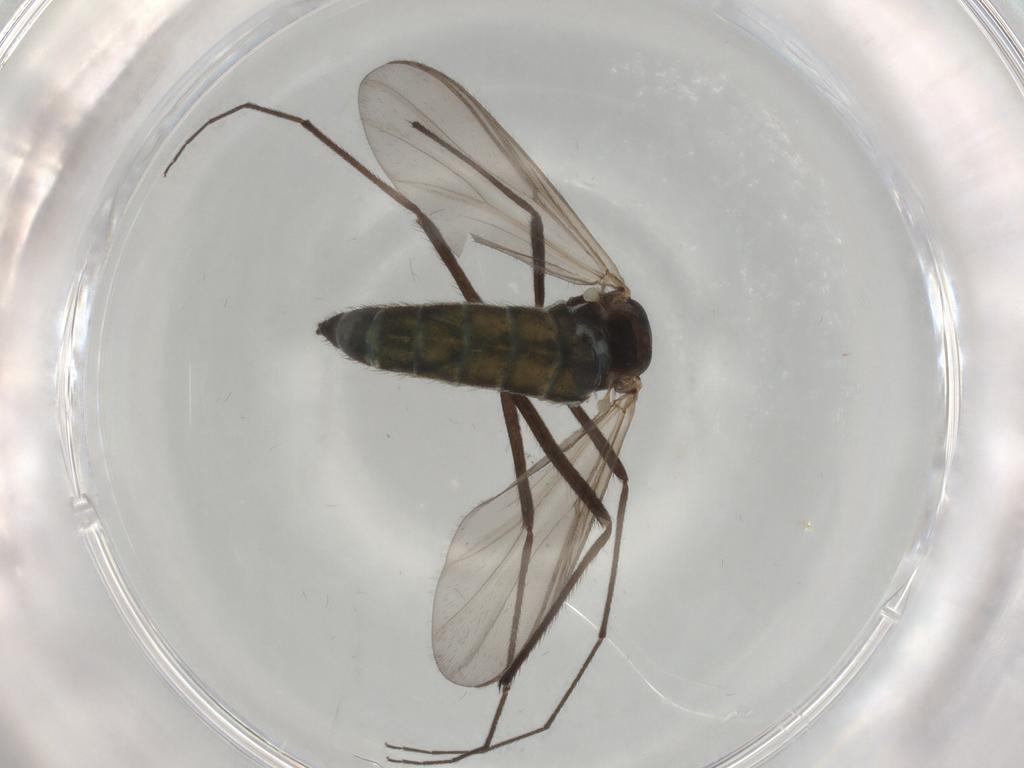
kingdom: Animalia
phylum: Arthropoda
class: Insecta
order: Diptera
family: Chironomidae
